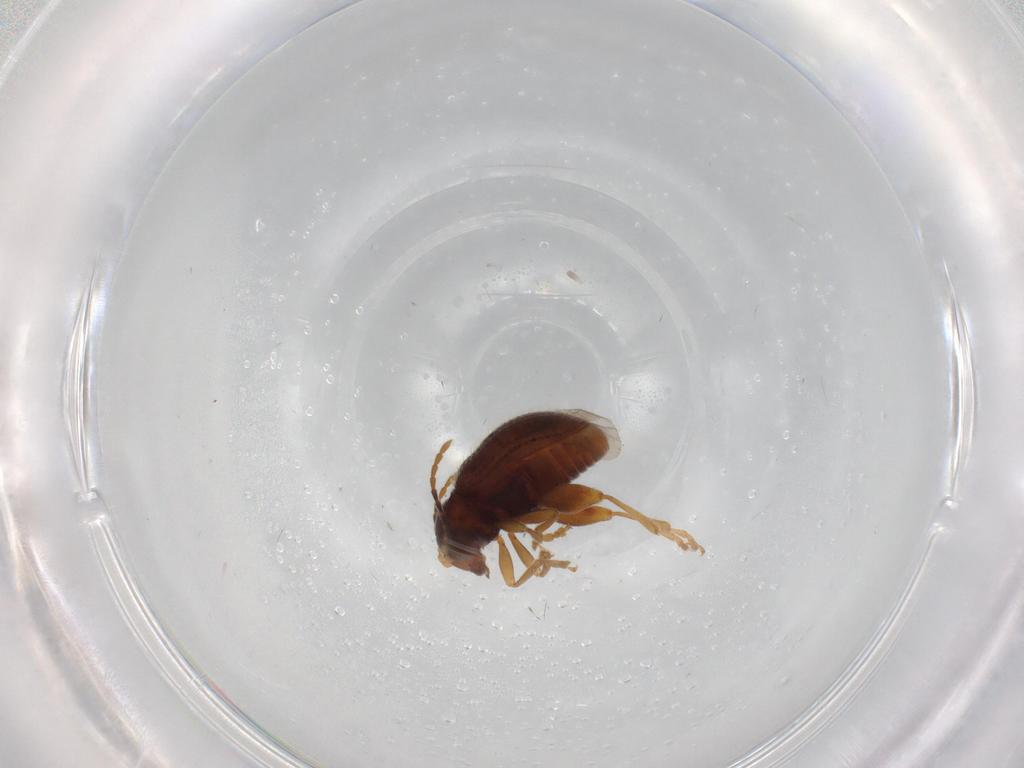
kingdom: Animalia
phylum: Arthropoda
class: Insecta
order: Coleoptera
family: Chrysomelidae
